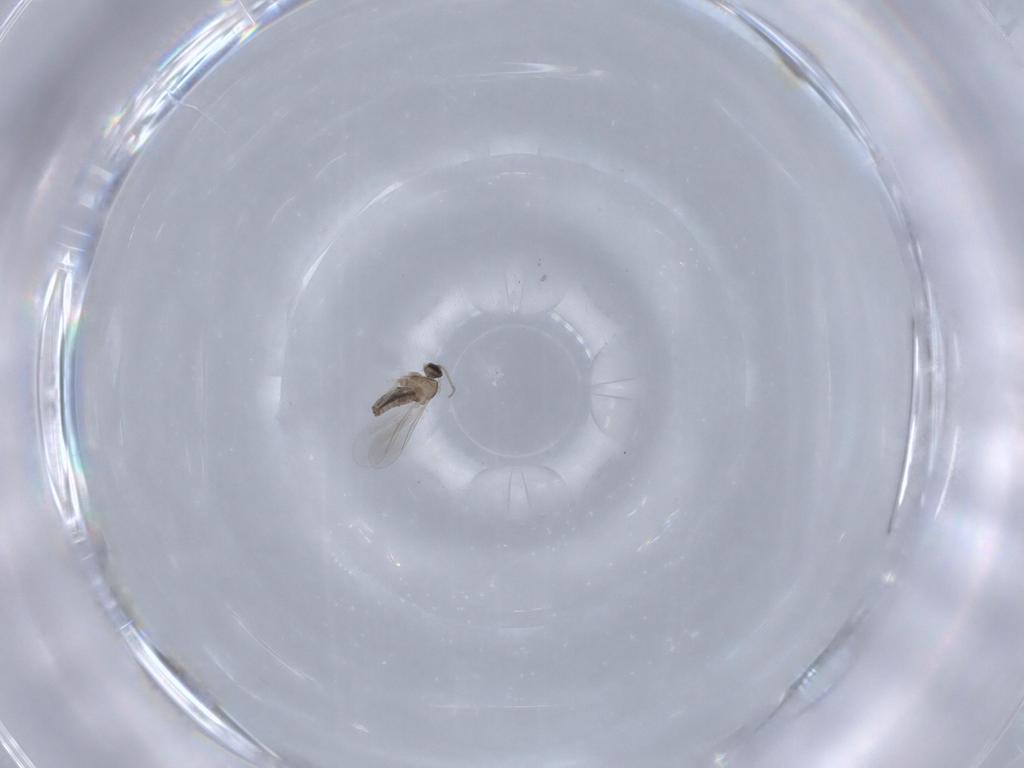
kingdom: Animalia
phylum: Arthropoda
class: Insecta
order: Diptera
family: Cecidomyiidae
